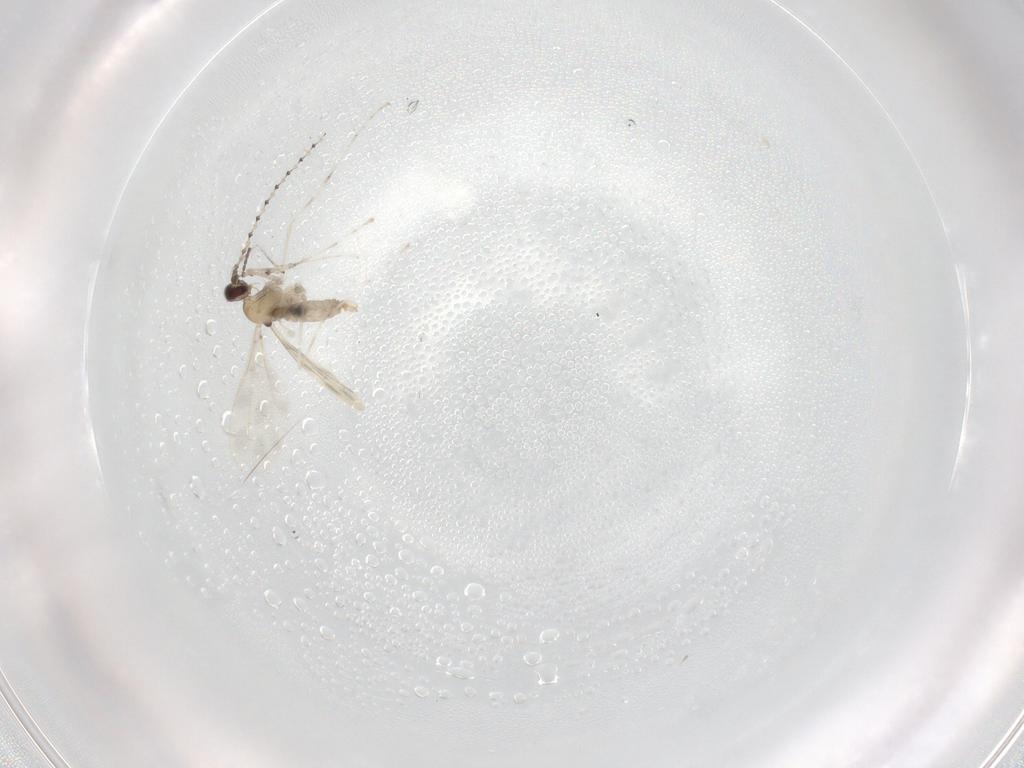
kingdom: Animalia
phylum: Arthropoda
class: Insecta
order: Diptera
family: Cecidomyiidae
